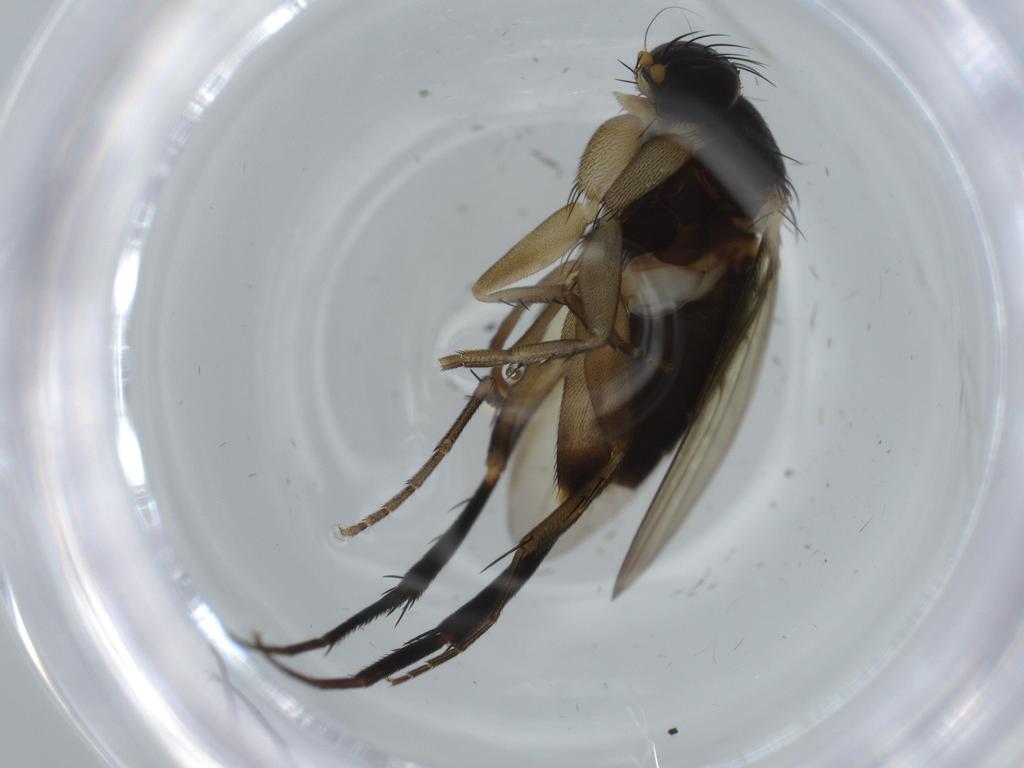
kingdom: Animalia
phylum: Arthropoda
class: Insecta
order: Diptera
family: Phoridae
